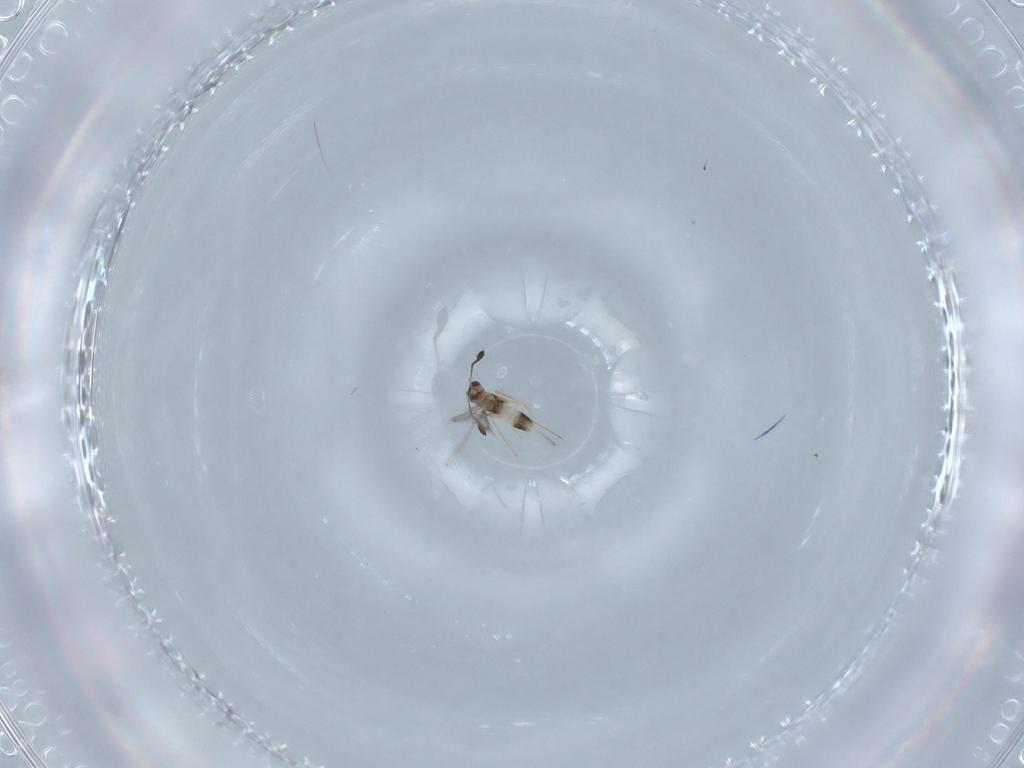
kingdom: Animalia
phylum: Arthropoda
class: Insecta
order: Hymenoptera
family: Mymaridae
